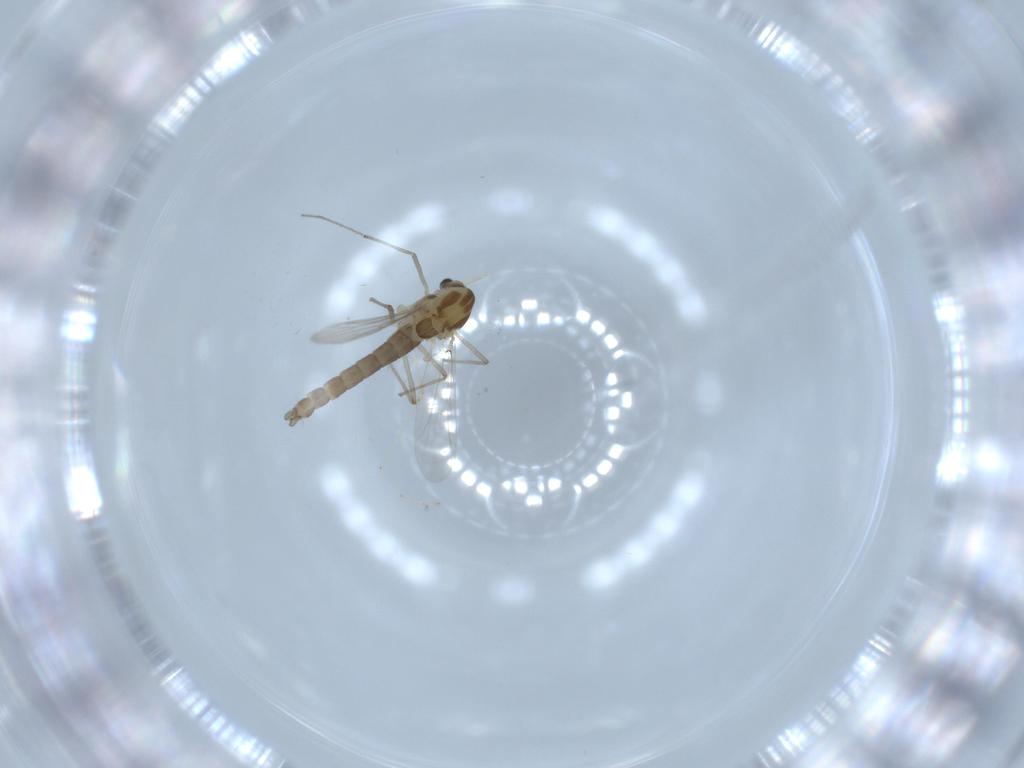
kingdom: Animalia
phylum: Arthropoda
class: Insecta
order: Diptera
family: Chironomidae
